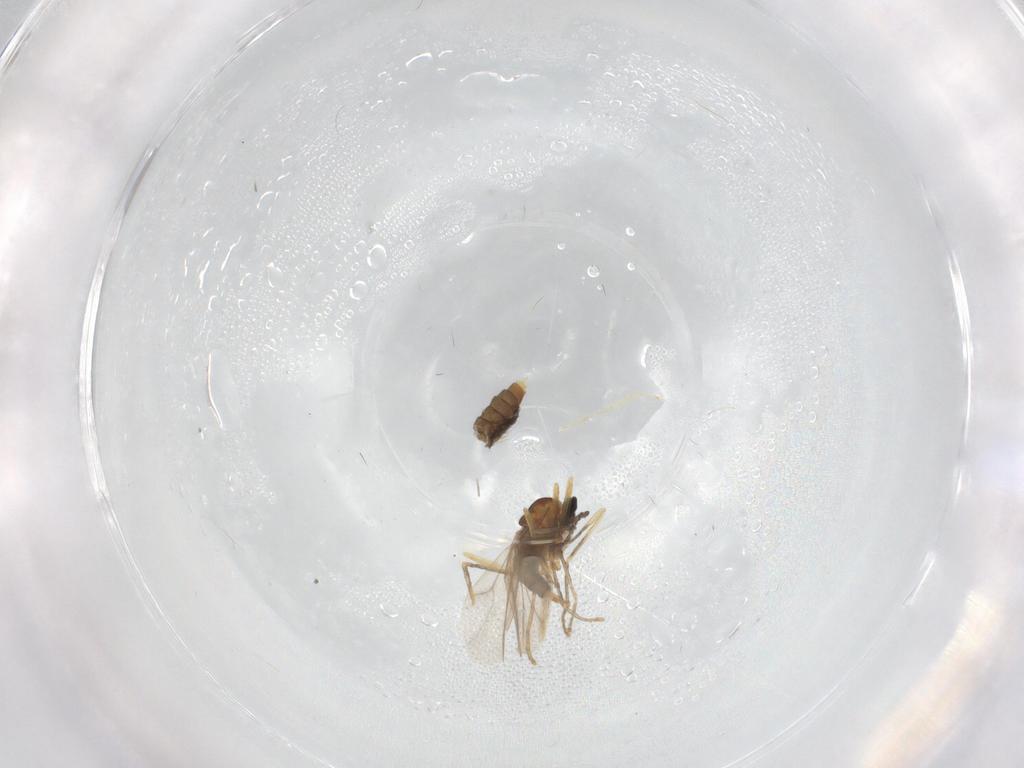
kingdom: Animalia
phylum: Arthropoda
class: Insecta
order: Diptera
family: Cecidomyiidae
